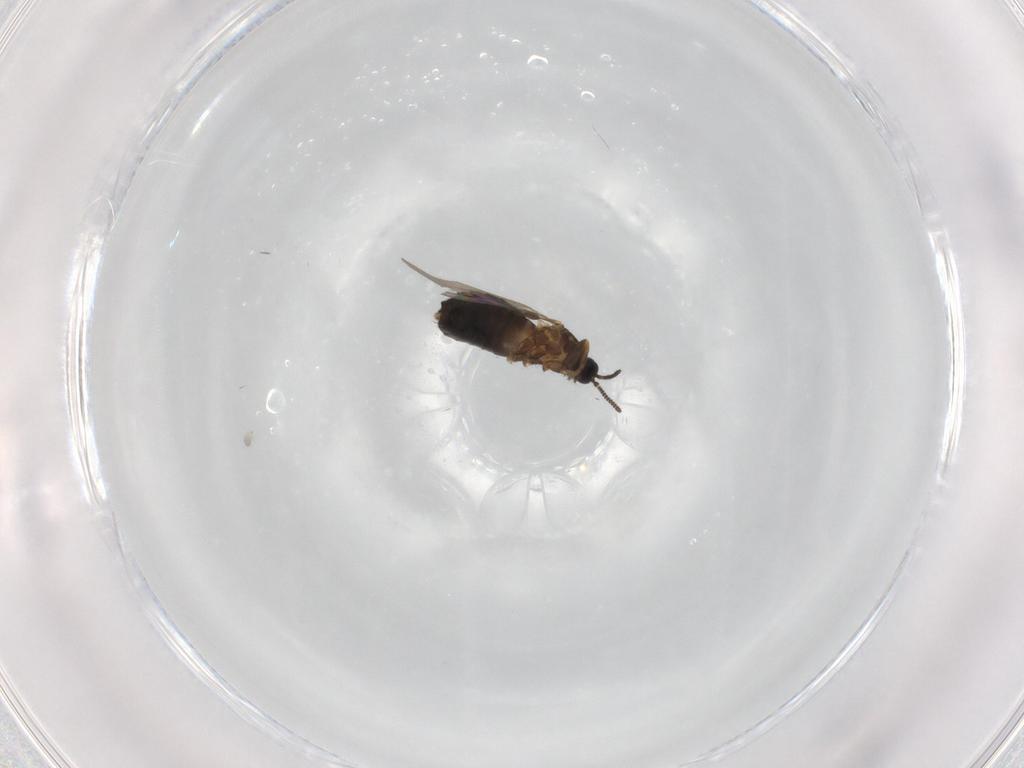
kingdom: Animalia
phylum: Arthropoda
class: Insecta
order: Diptera
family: Scatopsidae
